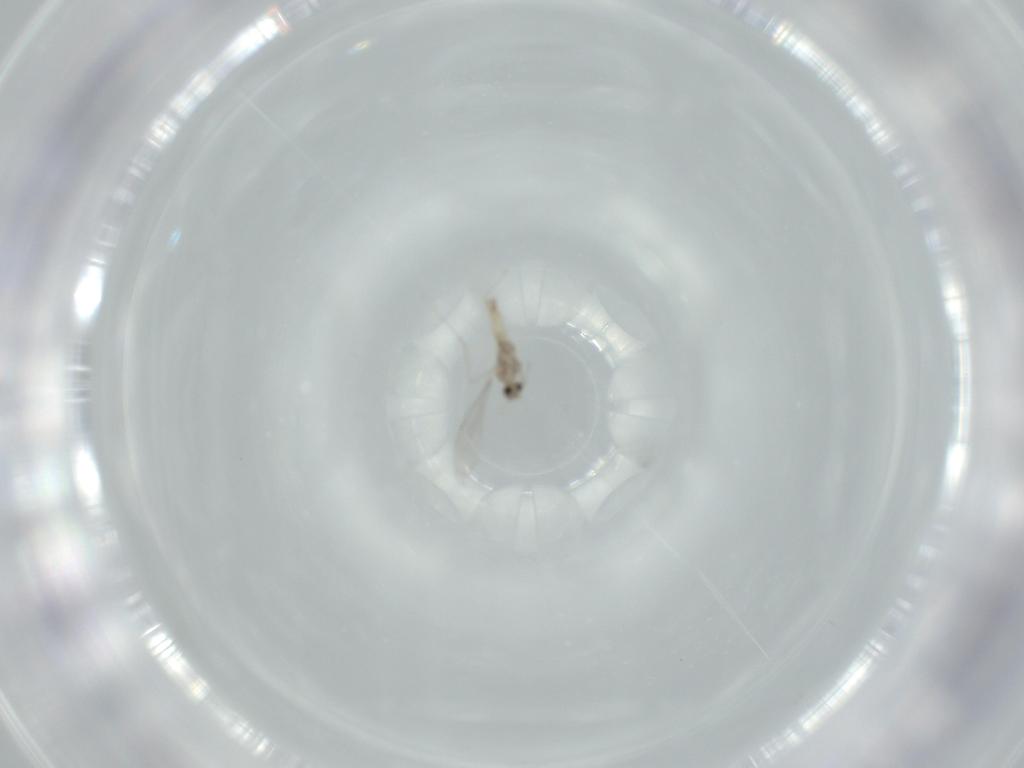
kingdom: Animalia
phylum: Arthropoda
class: Insecta
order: Diptera
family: Cecidomyiidae
